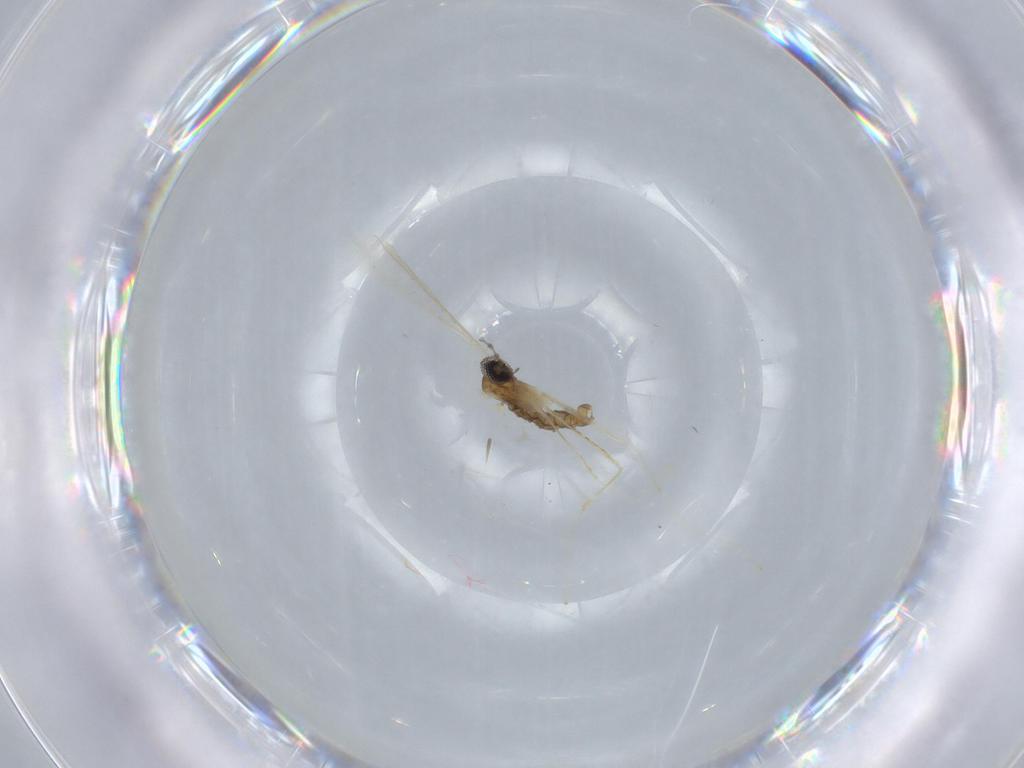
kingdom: Animalia
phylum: Arthropoda
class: Insecta
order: Diptera
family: Cecidomyiidae
